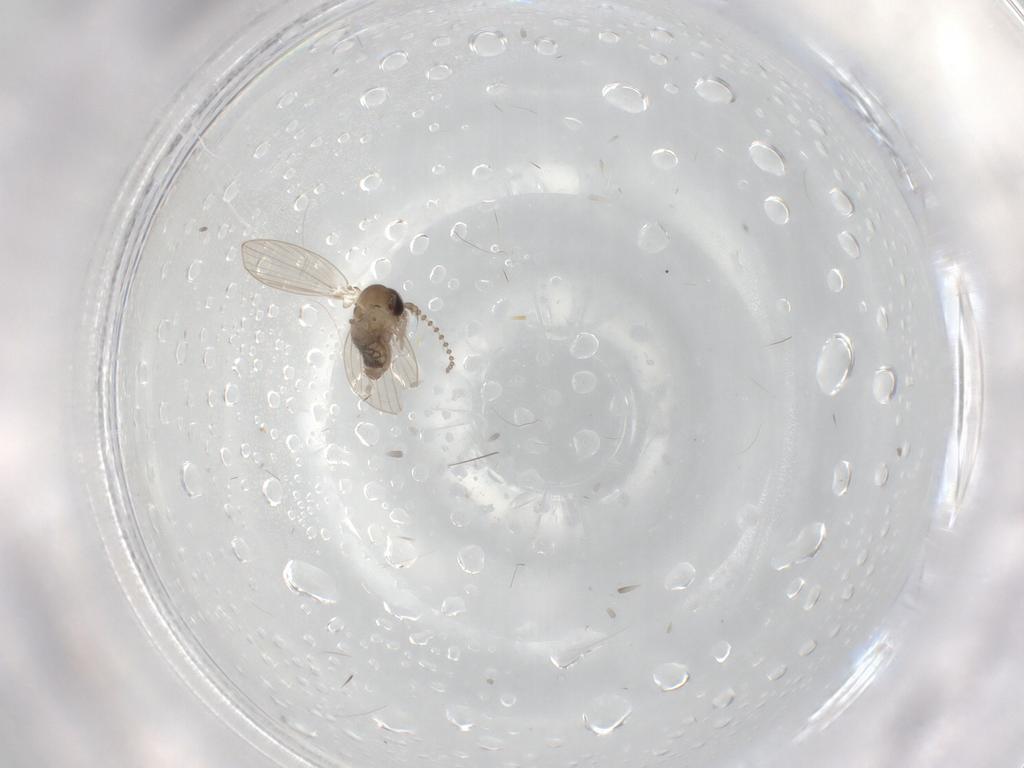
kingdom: Animalia
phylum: Arthropoda
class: Insecta
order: Diptera
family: Psychodidae
